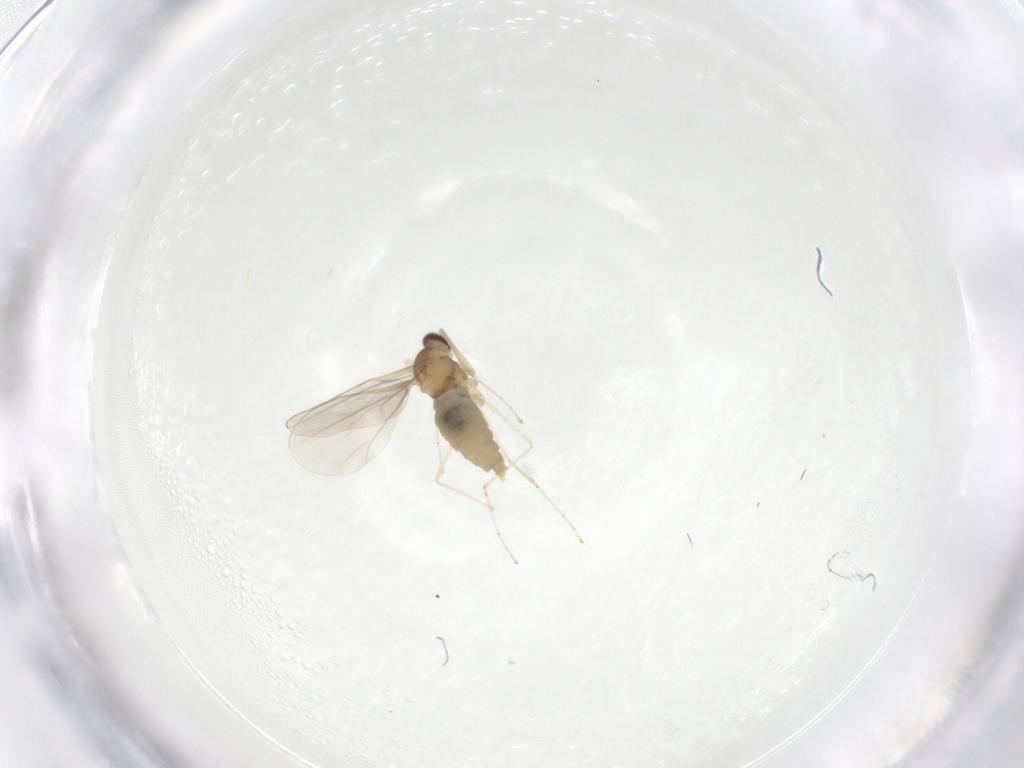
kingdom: Animalia
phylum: Arthropoda
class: Insecta
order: Diptera
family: Cecidomyiidae
